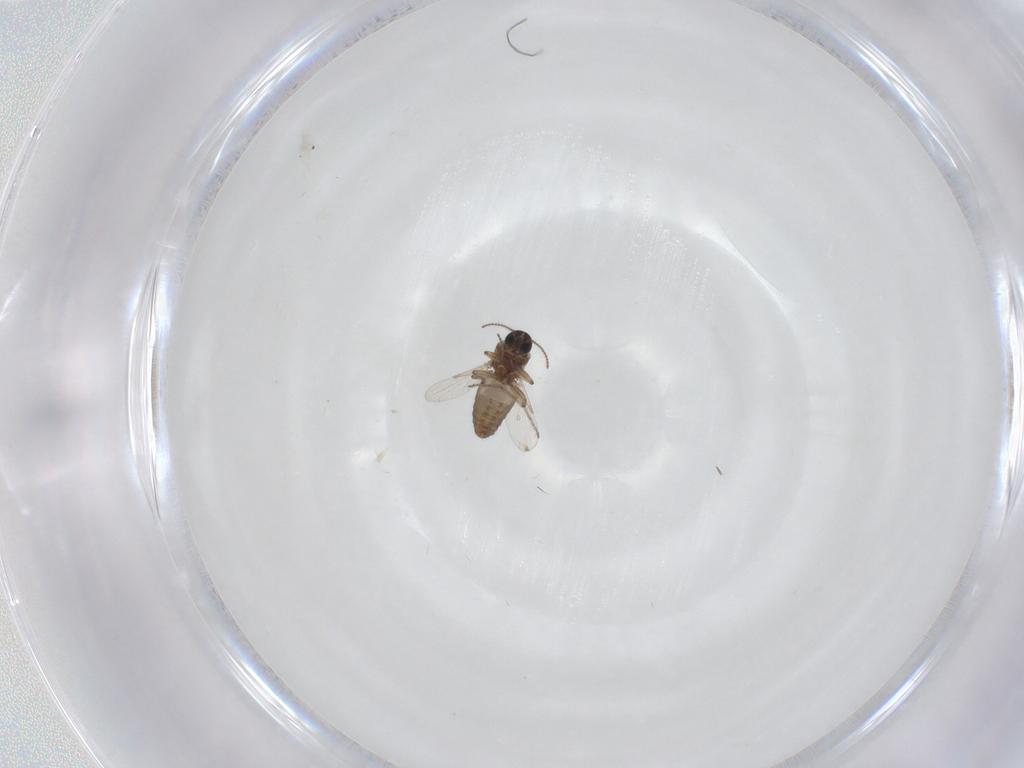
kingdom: Animalia
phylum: Arthropoda
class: Insecta
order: Diptera
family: Ceratopogonidae
